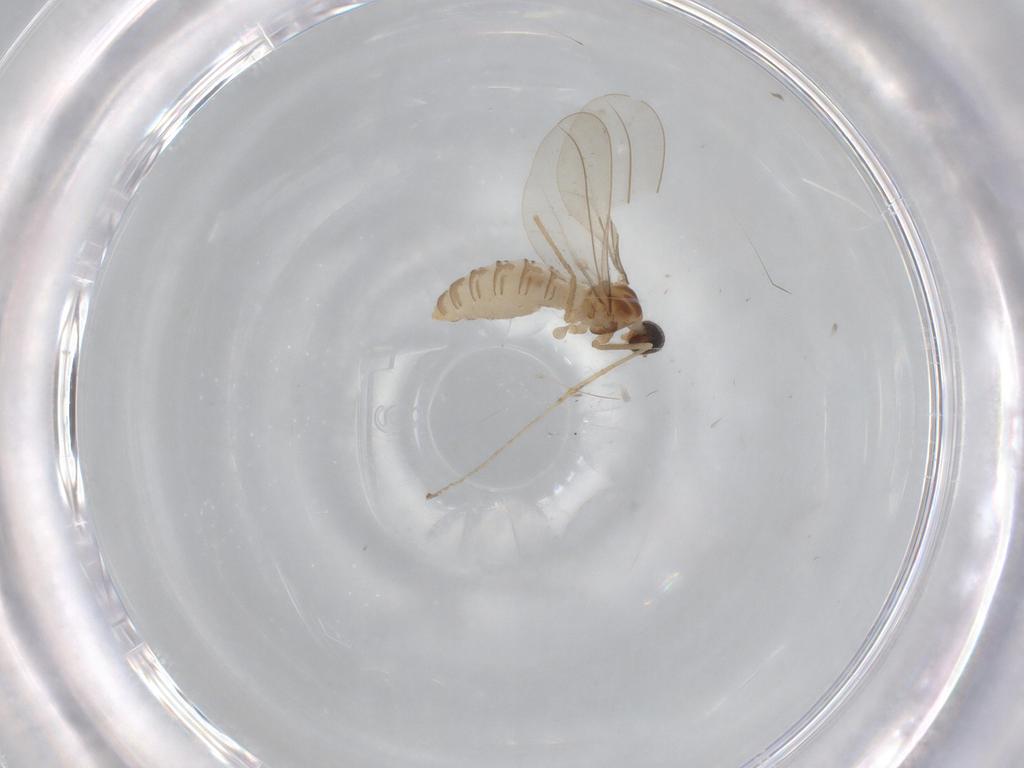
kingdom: Animalia
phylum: Arthropoda
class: Insecta
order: Diptera
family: Cecidomyiidae
